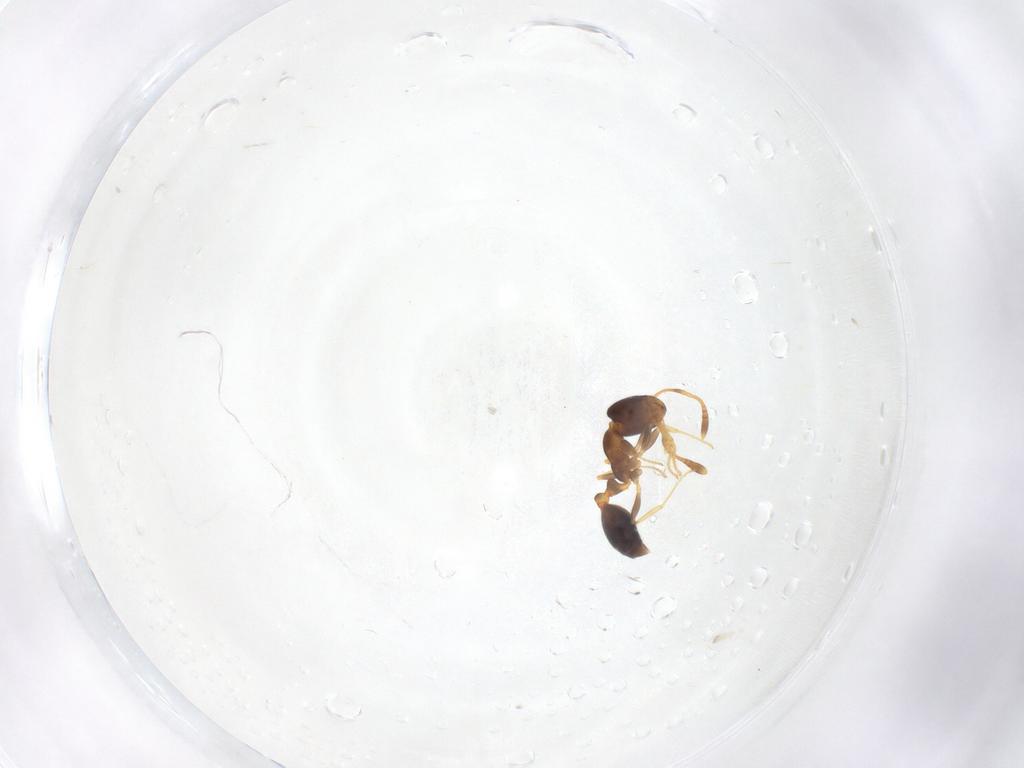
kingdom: Animalia
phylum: Arthropoda
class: Insecta
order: Hymenoptera
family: Formicidae
